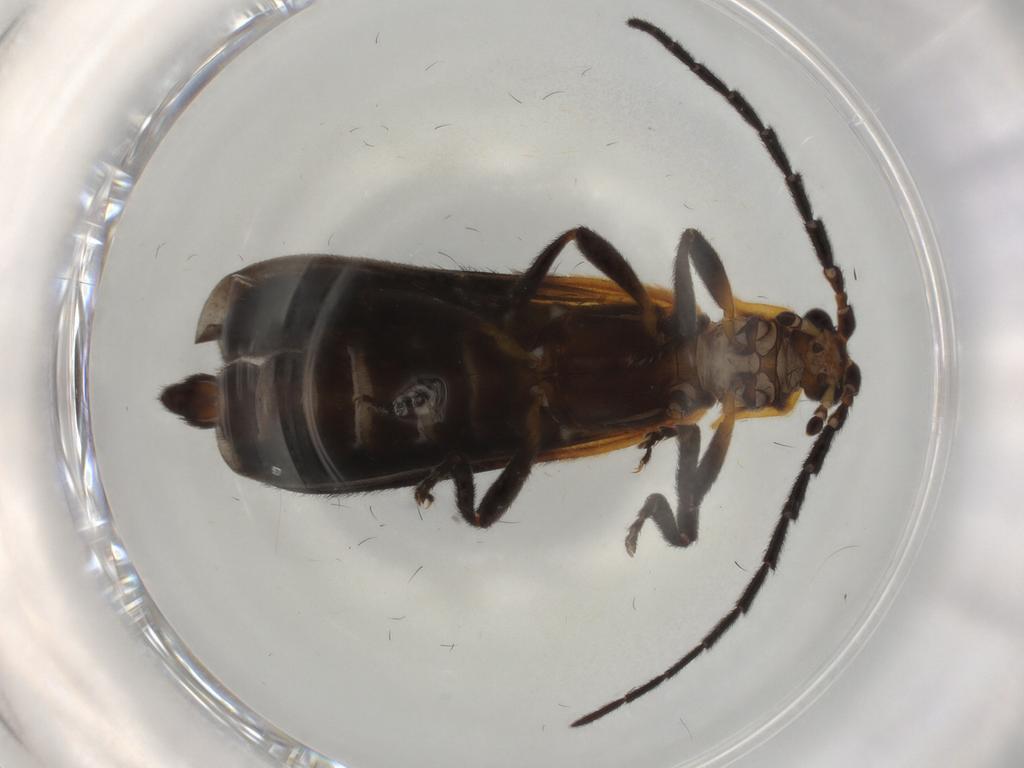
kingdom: Animalia
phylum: Arthropoda
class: Insecta
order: Coleoptera
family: Lycidae
